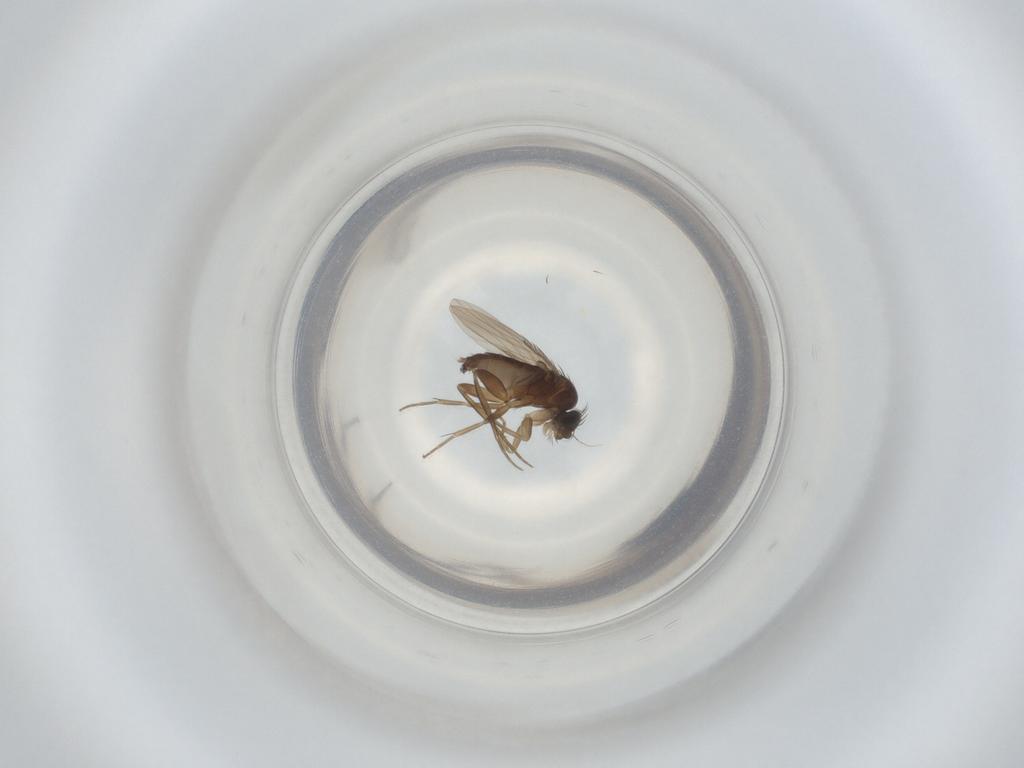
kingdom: Animalia
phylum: Arthropoda
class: Insecta
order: Diptera
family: Phoridae
